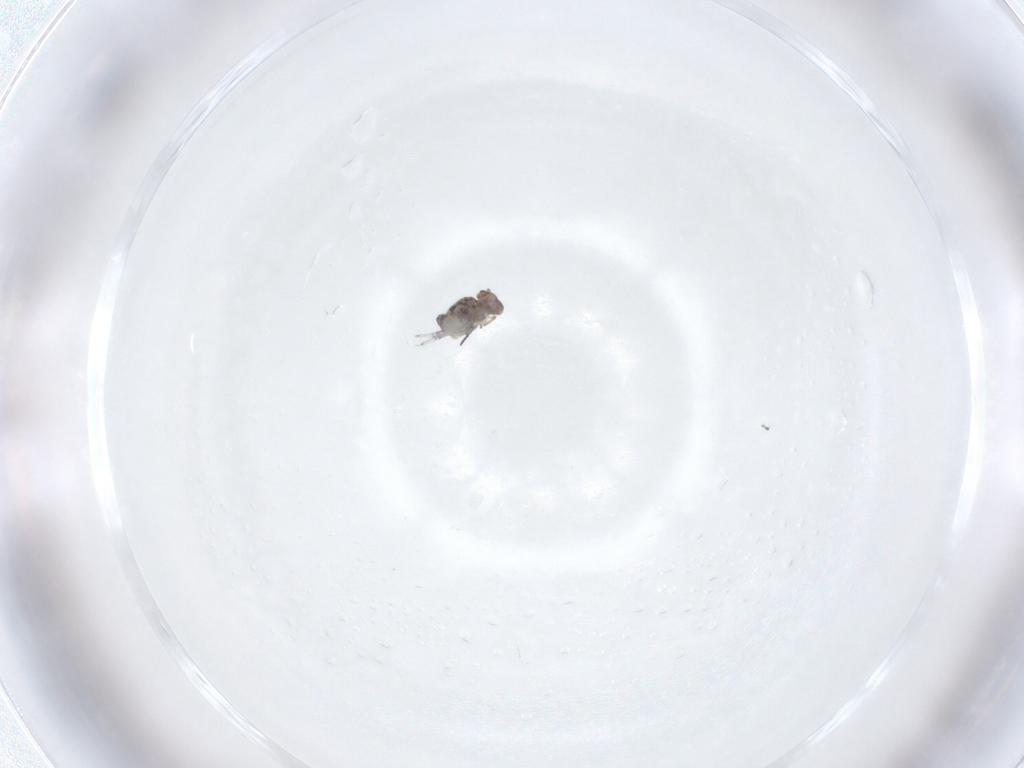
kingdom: Animalia
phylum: Arthropoda
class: Collembola
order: Symphypleona
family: Bourletiellidae
